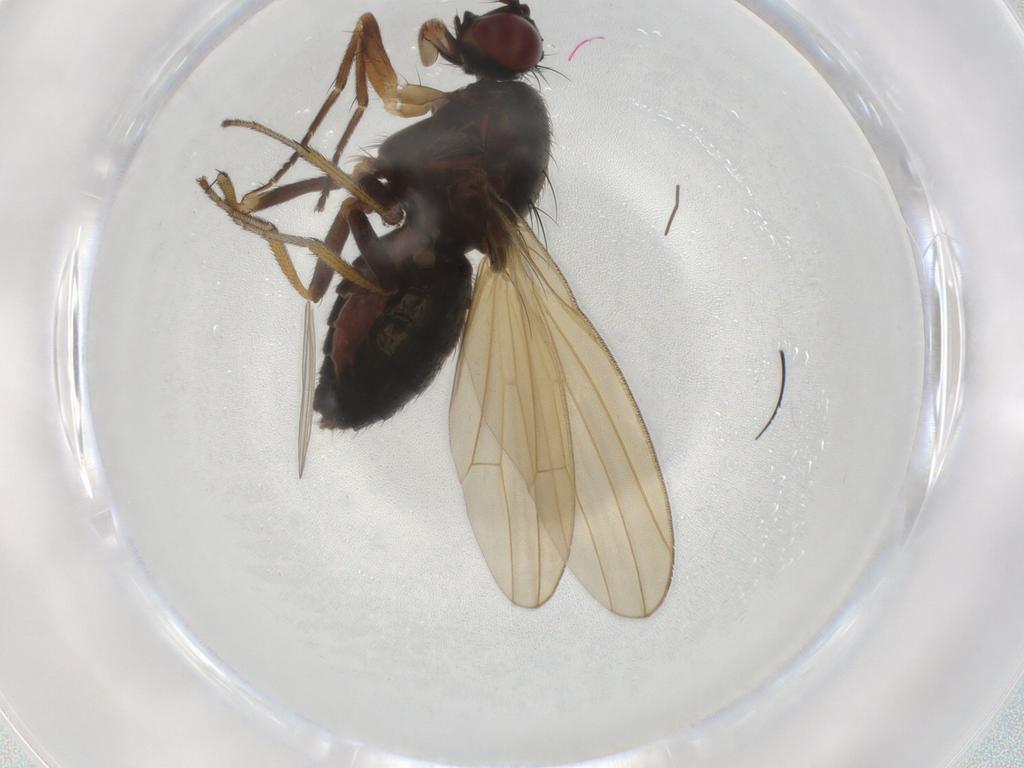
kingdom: Animalia
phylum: Arthropoda
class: Insecta
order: Diptera
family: Chironomidae
